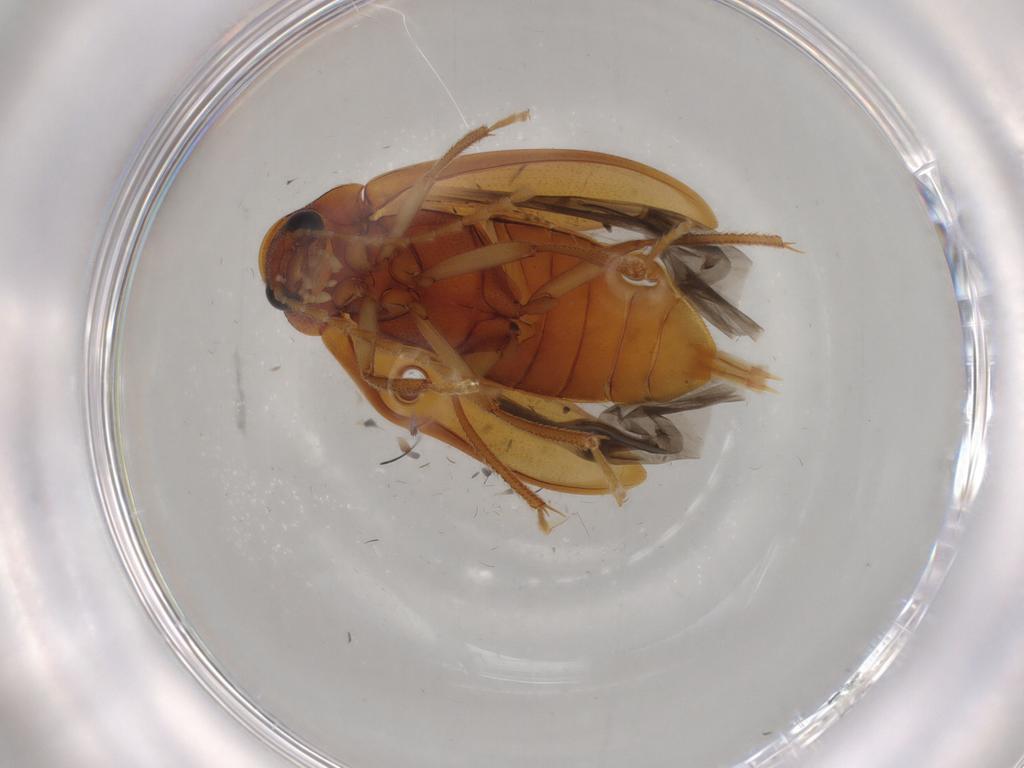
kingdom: Animalia
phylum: Arthropoda
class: Insecta
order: Coleoptera
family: Ptilodactylidae
